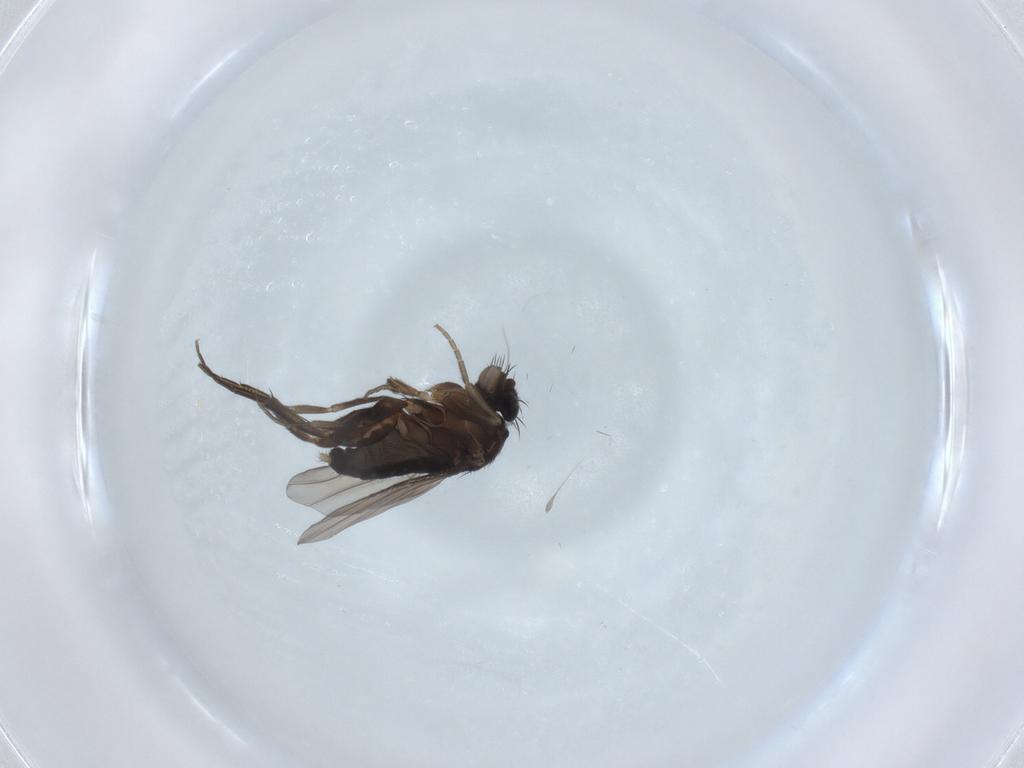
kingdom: Animalia
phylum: Arthropoda
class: Insecta
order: Diptera
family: Phoridae
